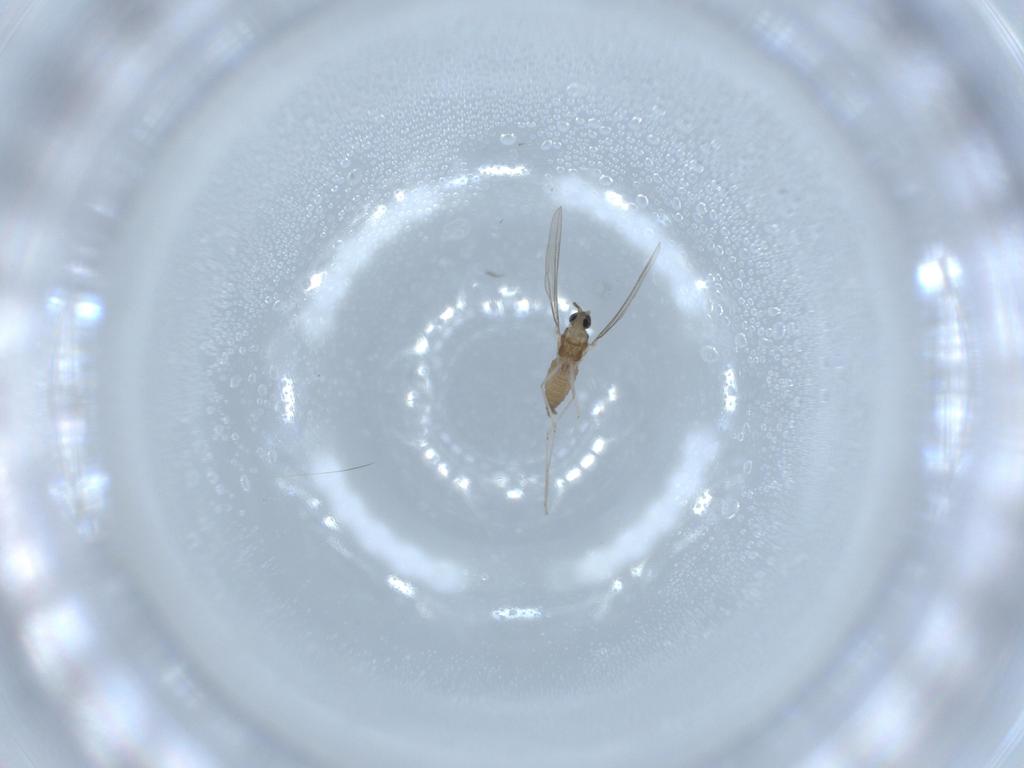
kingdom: Animalia
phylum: Arthropoda
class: Insecta
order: Diptera
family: Cecidomyiidae
